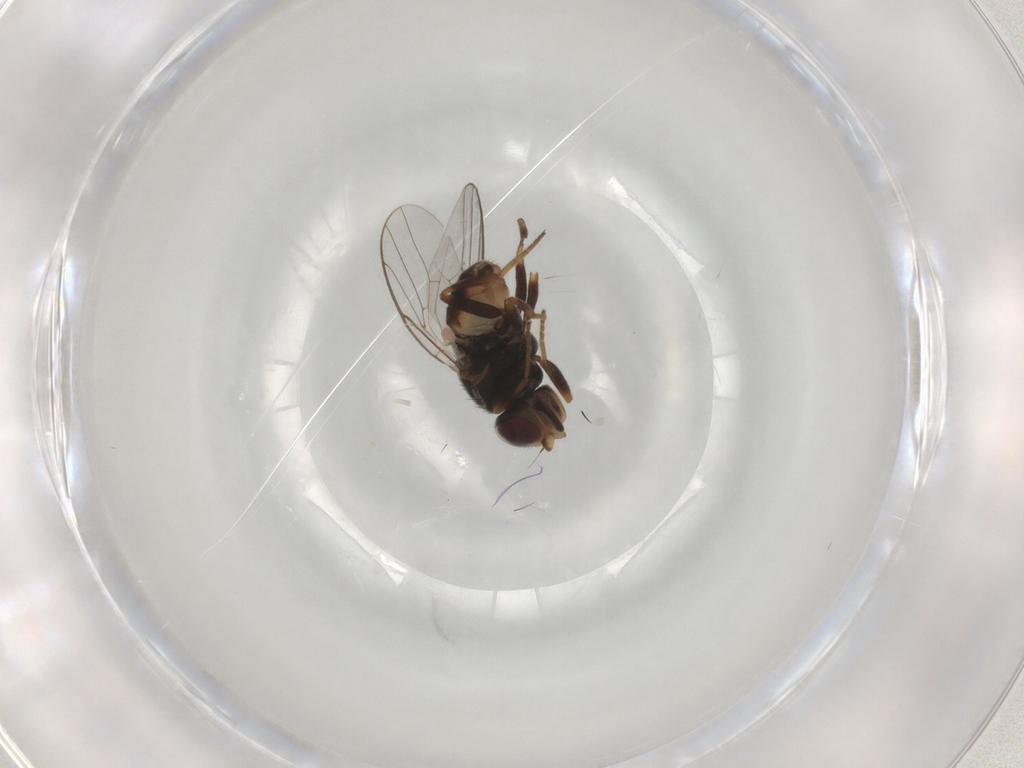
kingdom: Animalia
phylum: Arthropoda
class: Insecta
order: Diptera
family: Chloropidae
